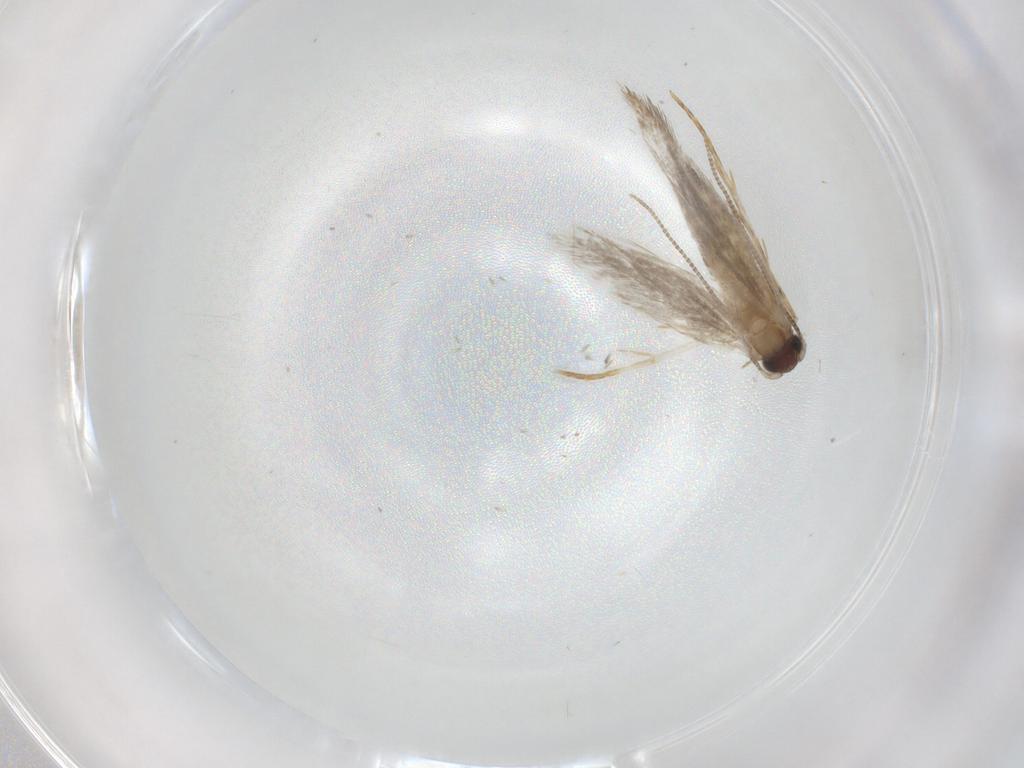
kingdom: Animalia
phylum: Arthropoda
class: Insecta
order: Lepidoptera
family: Tineidae
